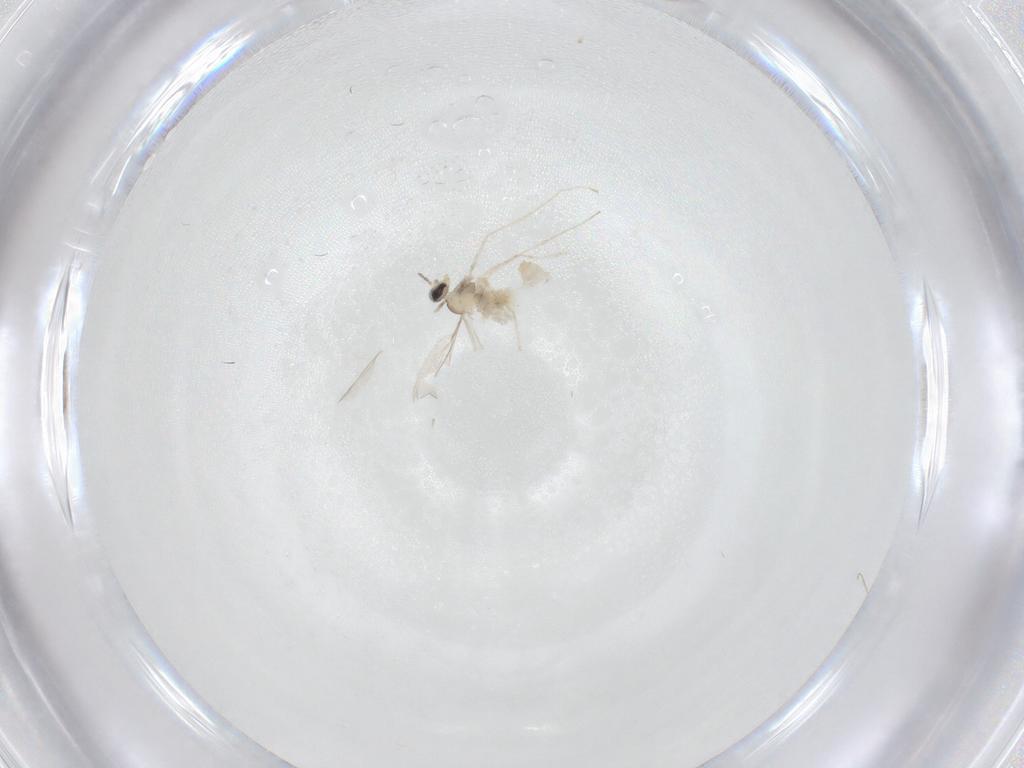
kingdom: Animalia
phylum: Arthropoda
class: Insecta
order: Diptera
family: Cecidomyiidae
